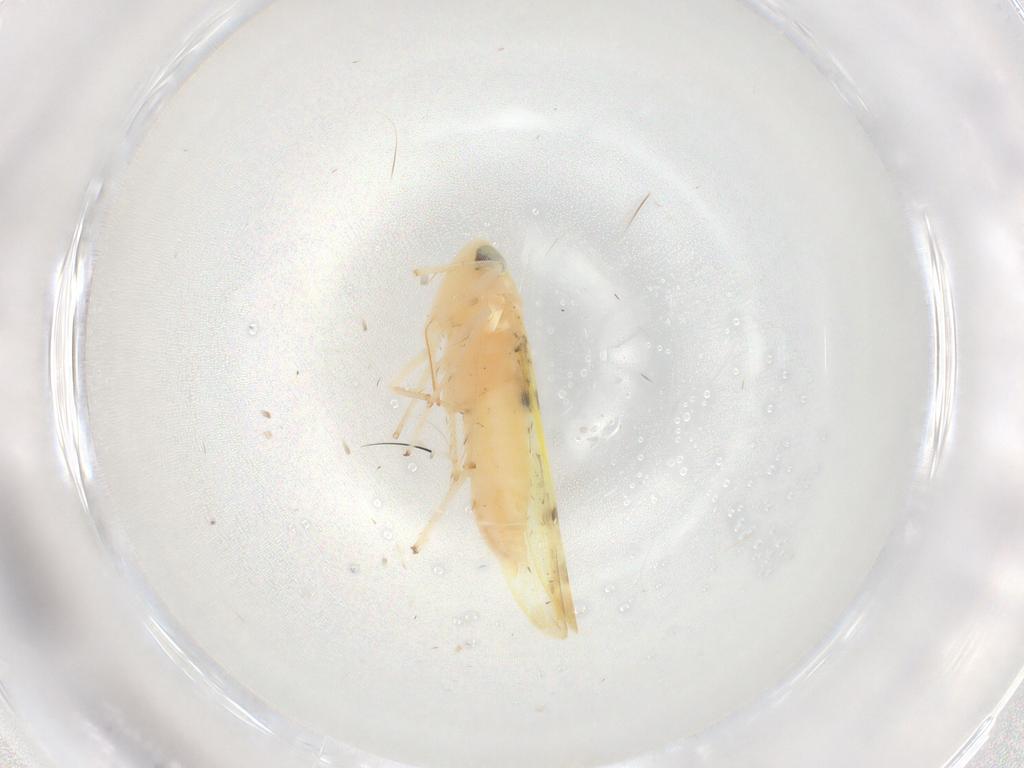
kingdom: Animalia
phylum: Arthropoda
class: Insecta
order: Hemiptera
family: Cicadellidae
